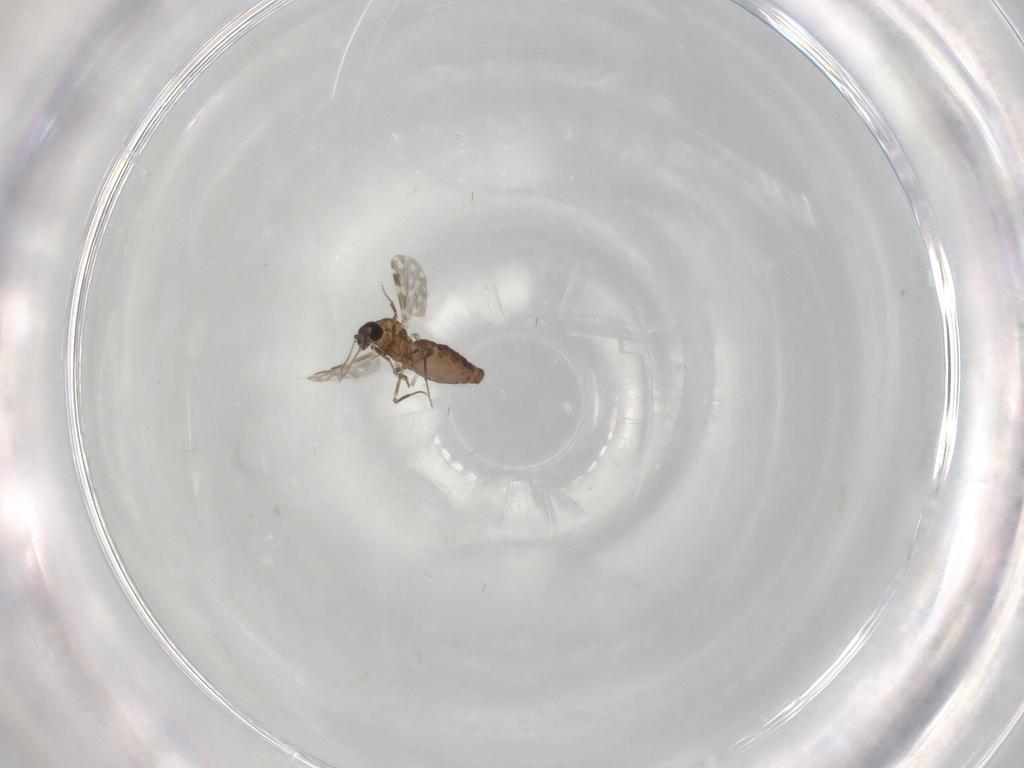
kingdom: Animalia
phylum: Arthropoda
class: Insecta
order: Diptera
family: Ceratopogonidae
